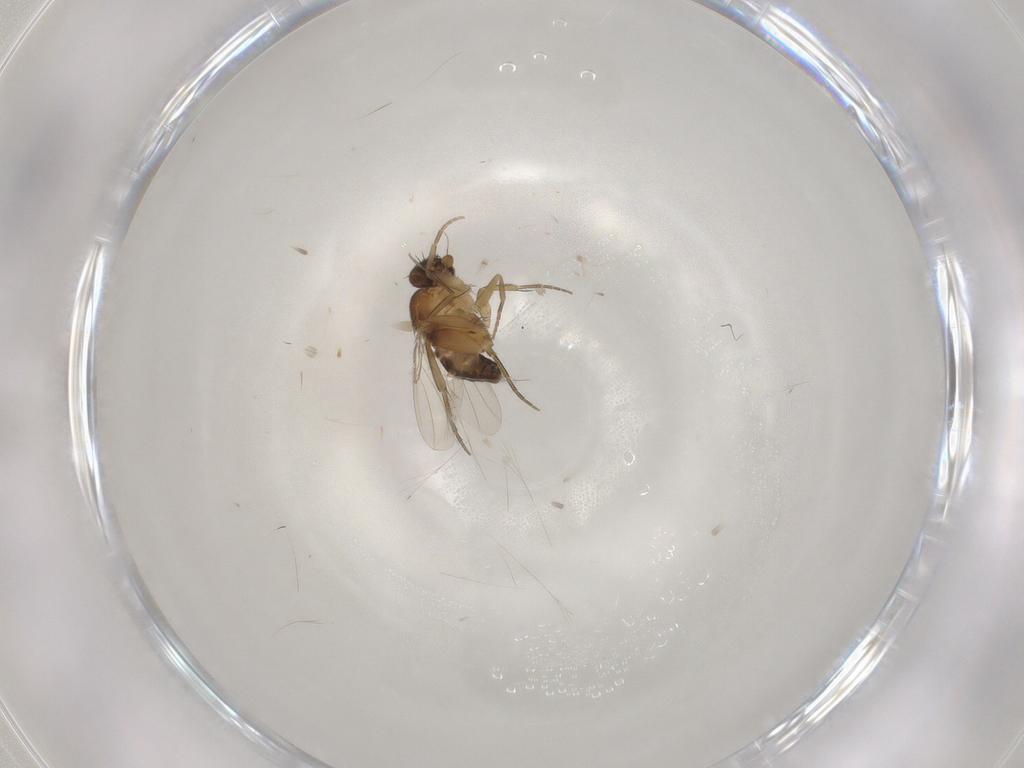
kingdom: Animalia
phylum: Arthropoda
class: Insecta
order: Diptera
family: Phoridae
